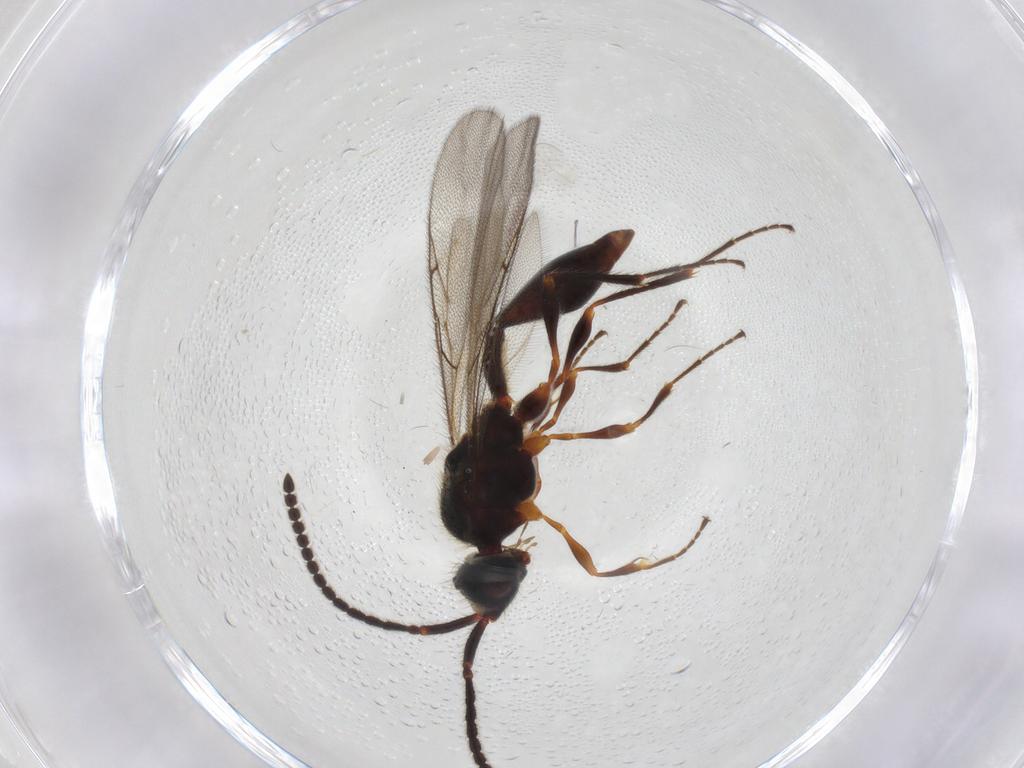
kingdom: Animalia
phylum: Arthropoda
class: Insecta
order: Hymenoptera
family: Diapriidae
